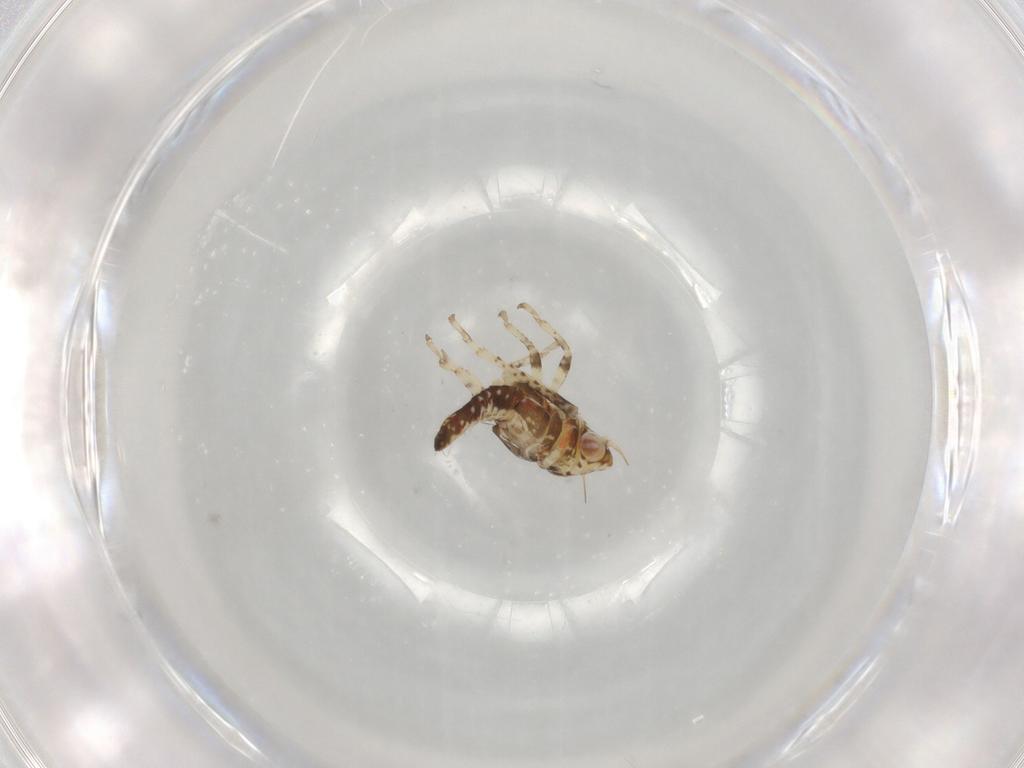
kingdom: Animalia
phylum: Arthropoda
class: Insecta
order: Hemiptera
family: Cicadellidae
